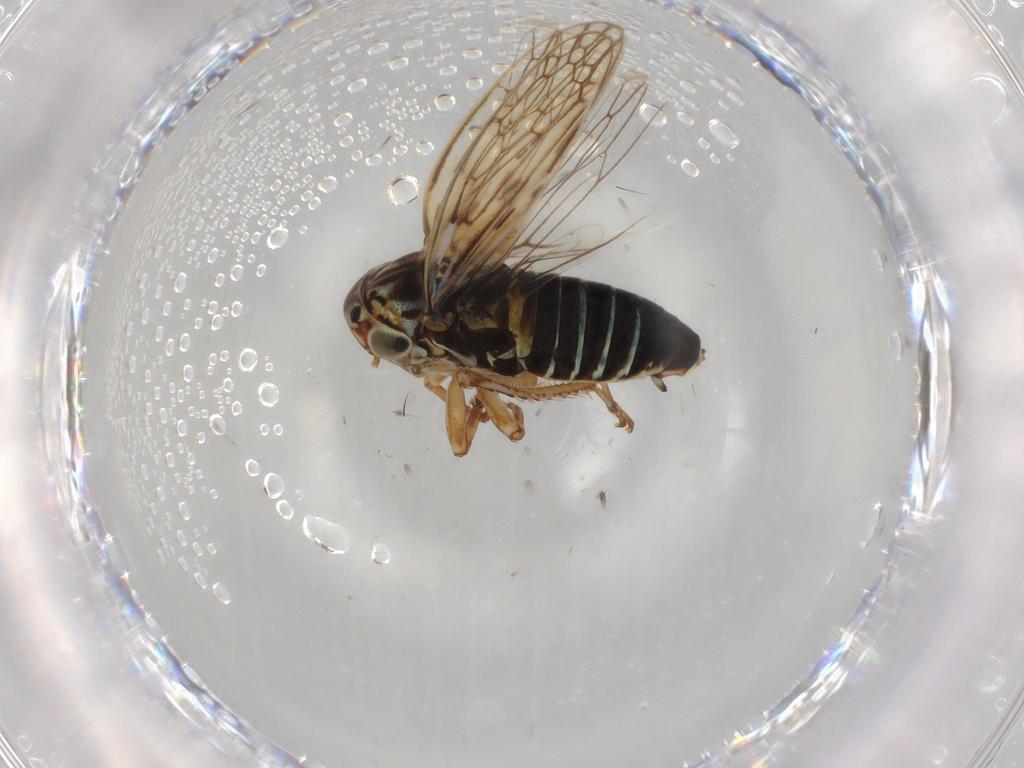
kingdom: Animalia
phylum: Arthropoda
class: Insecta
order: Hemiptera
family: Cicadellidae
